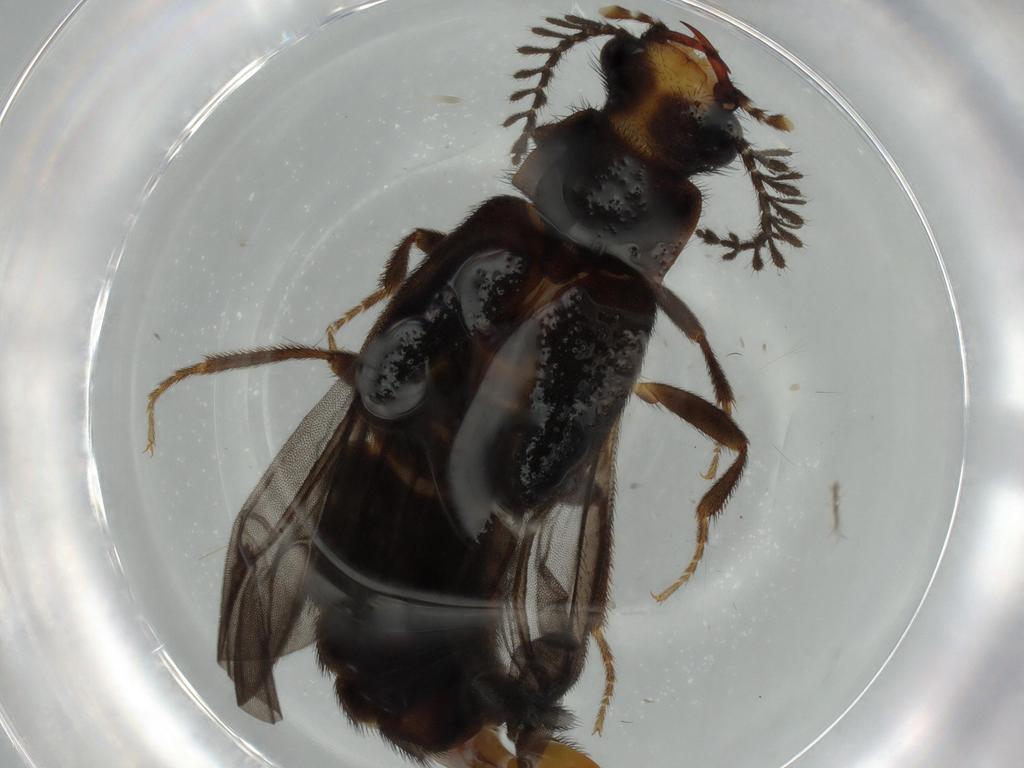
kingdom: Animalia
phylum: Arthropoda
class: Insecta
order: Coleoptera
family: Phengodidae
